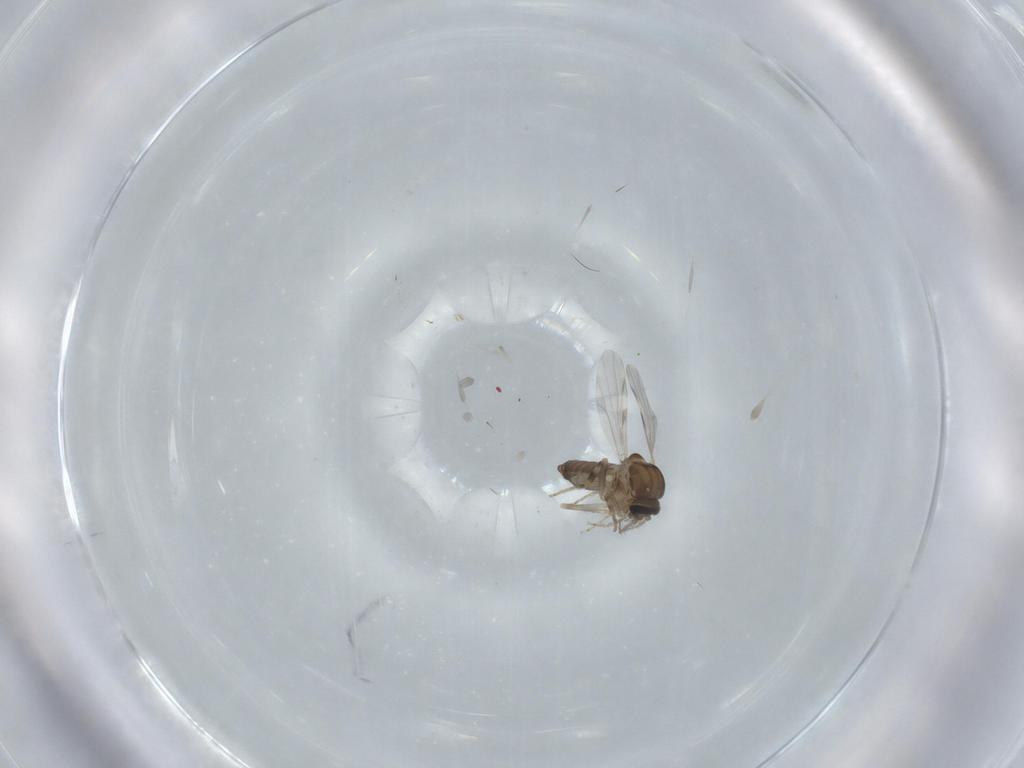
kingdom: Animalia
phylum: Arthropoda
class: Insecta
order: Diptera
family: Ceratopogonidae
